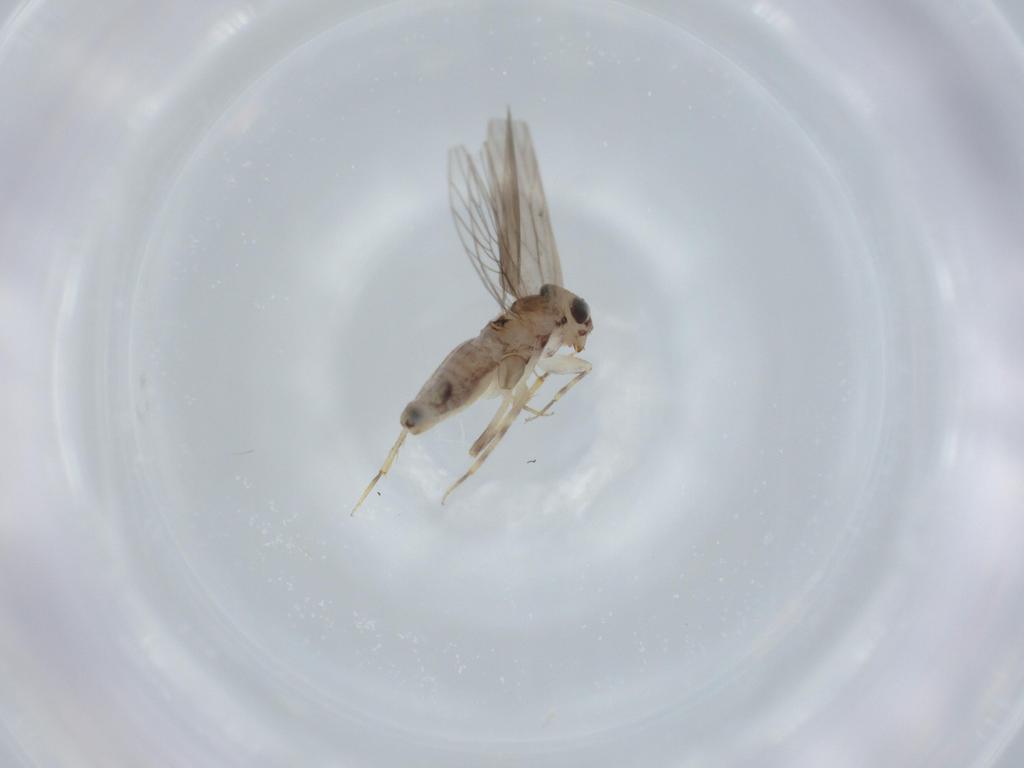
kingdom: Animalia
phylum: Arthropoda
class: Insecta
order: Psocodea
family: Lepidopsocidae
